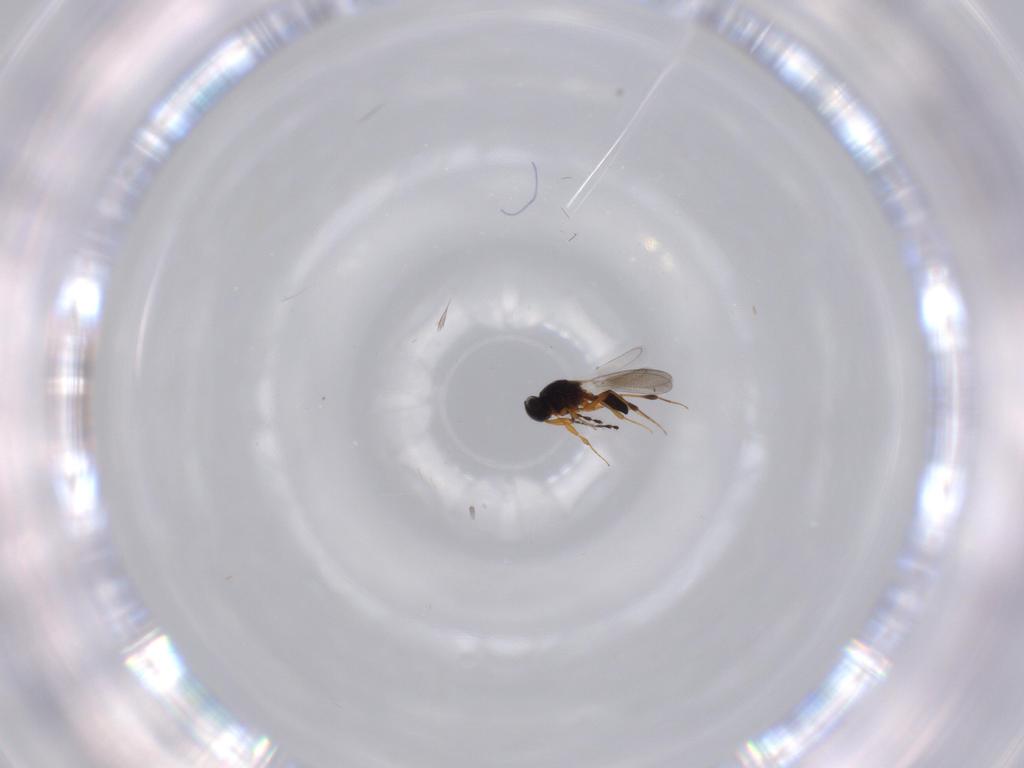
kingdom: Animalia
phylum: Arthropoda
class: Insecta
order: Hymenoptera
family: Platygastridae
